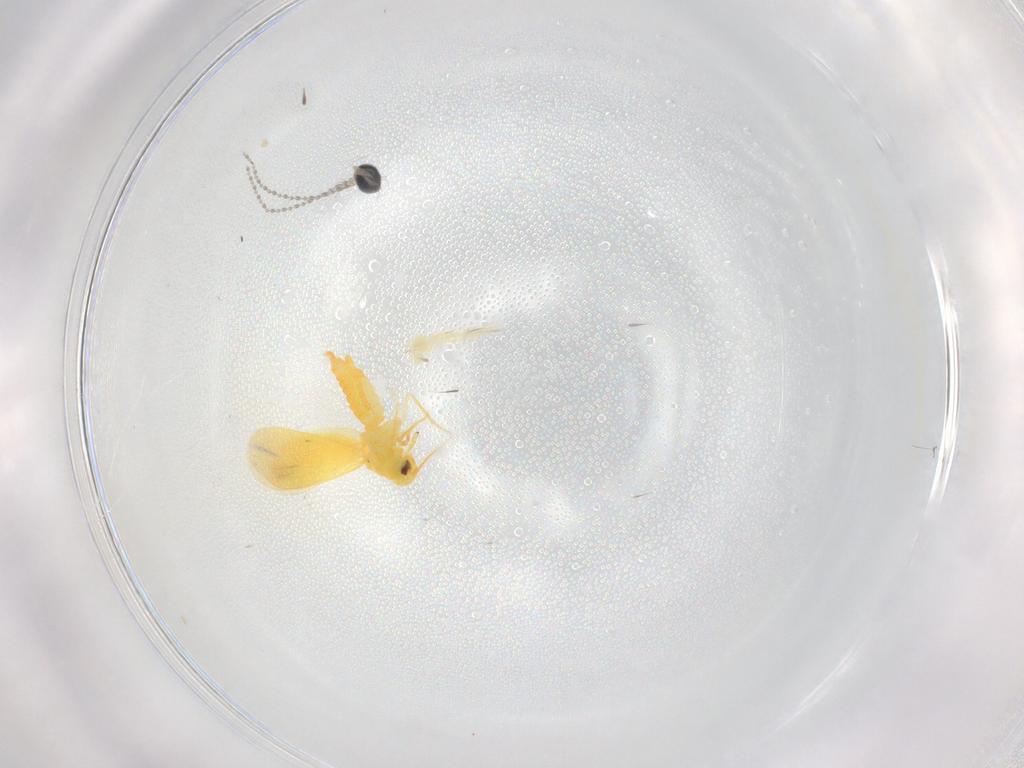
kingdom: Animalia
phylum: Arthropoda
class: Insecta
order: Hemiptera
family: Cicadellidae
